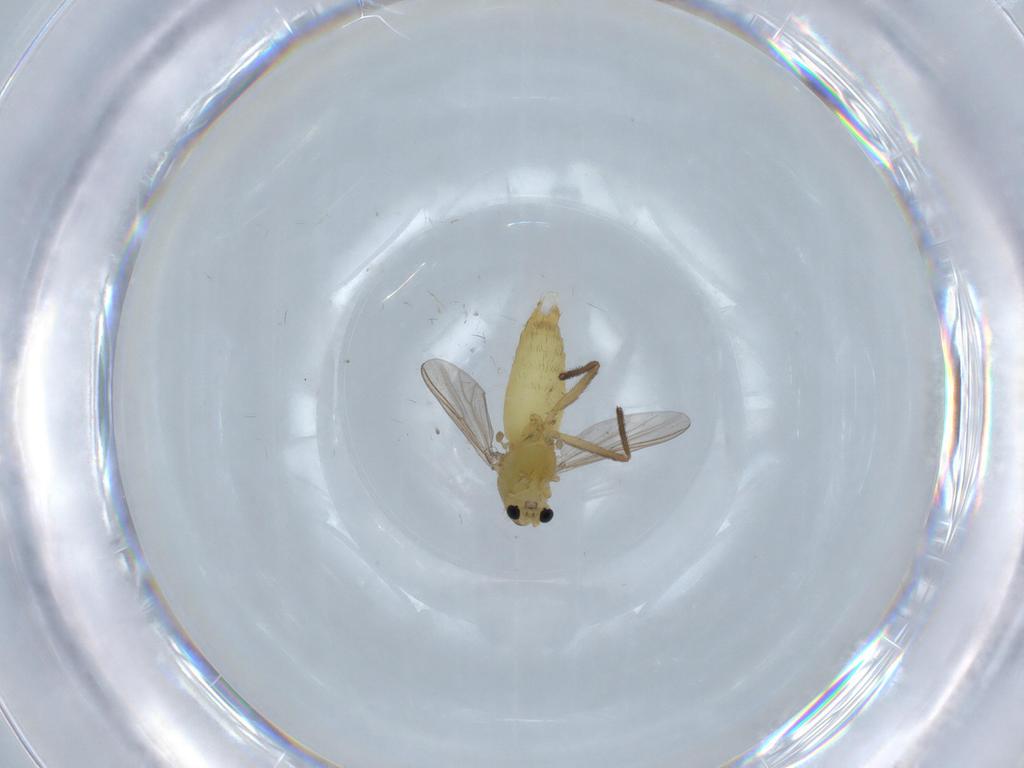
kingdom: Animalia
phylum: Arthropoda
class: Insecta
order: Diptera
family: Chironomidae
